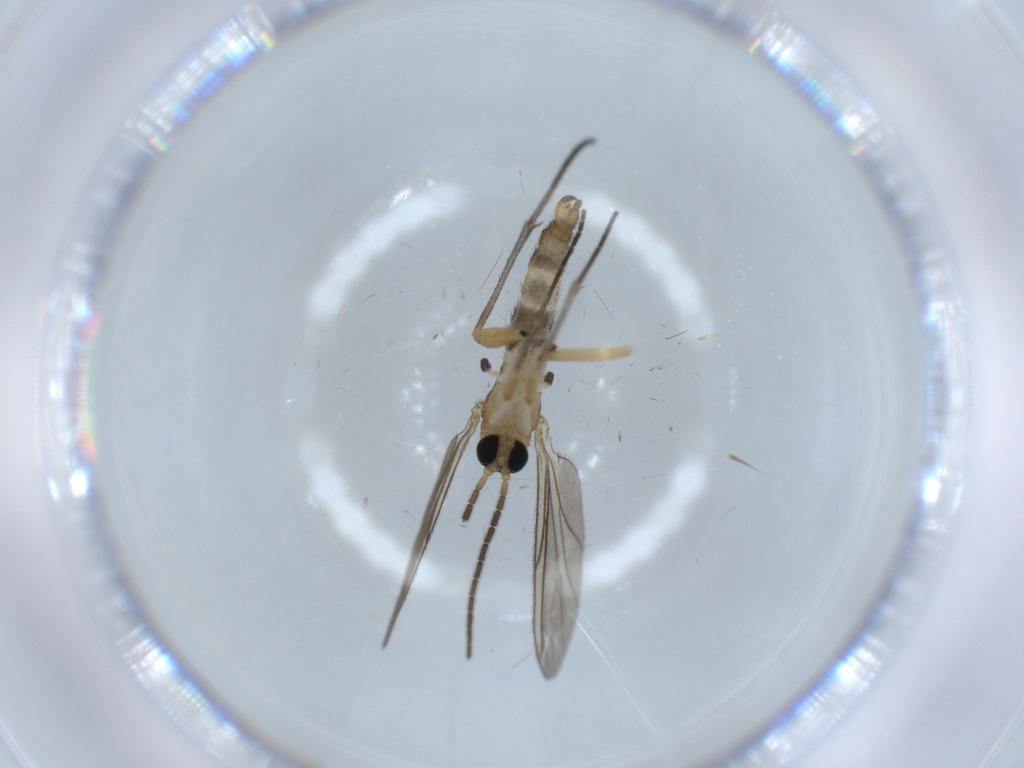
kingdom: Animalia
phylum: Arthropoda
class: Insecta
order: Diptera
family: Sciaridae
